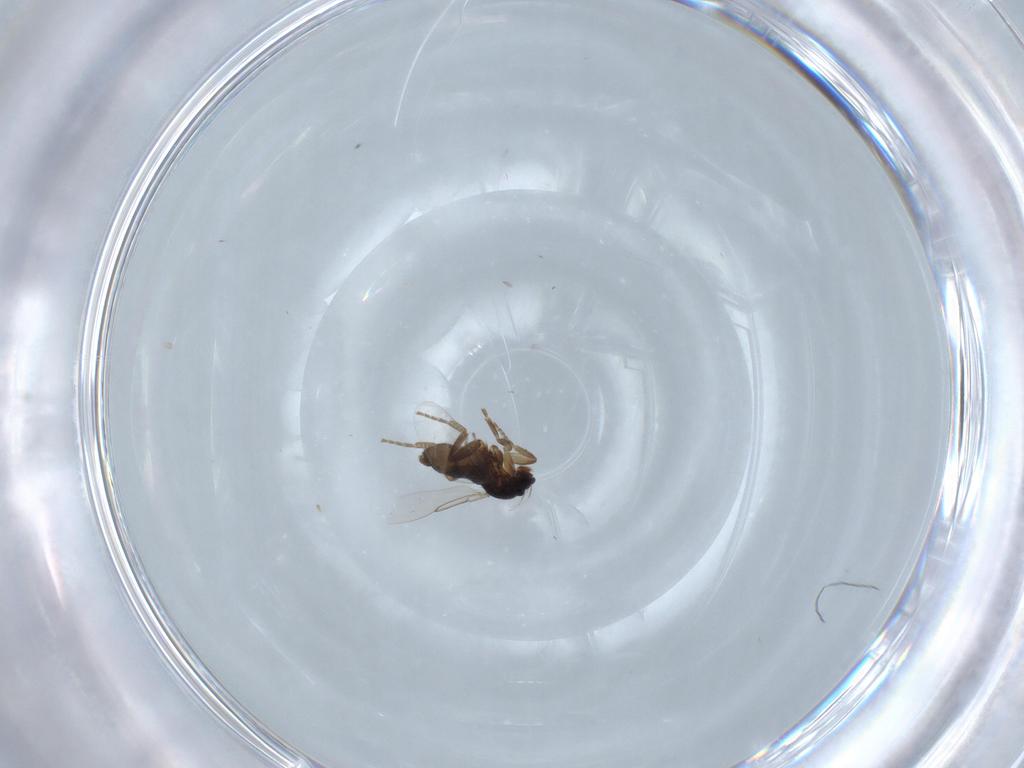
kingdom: Animalia
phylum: Arthropoda
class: Insecta
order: Diptera
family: Phoridae
